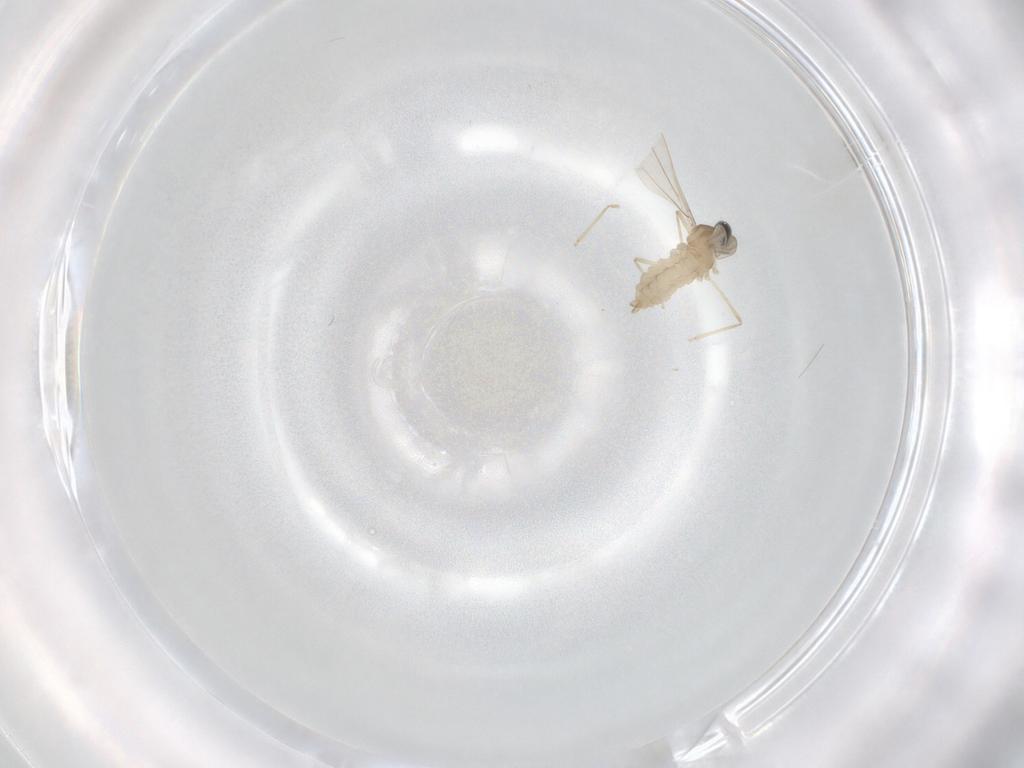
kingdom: Animalia
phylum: Arthropoda
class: Insecta
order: Diptera
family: Cecidomyiidae
